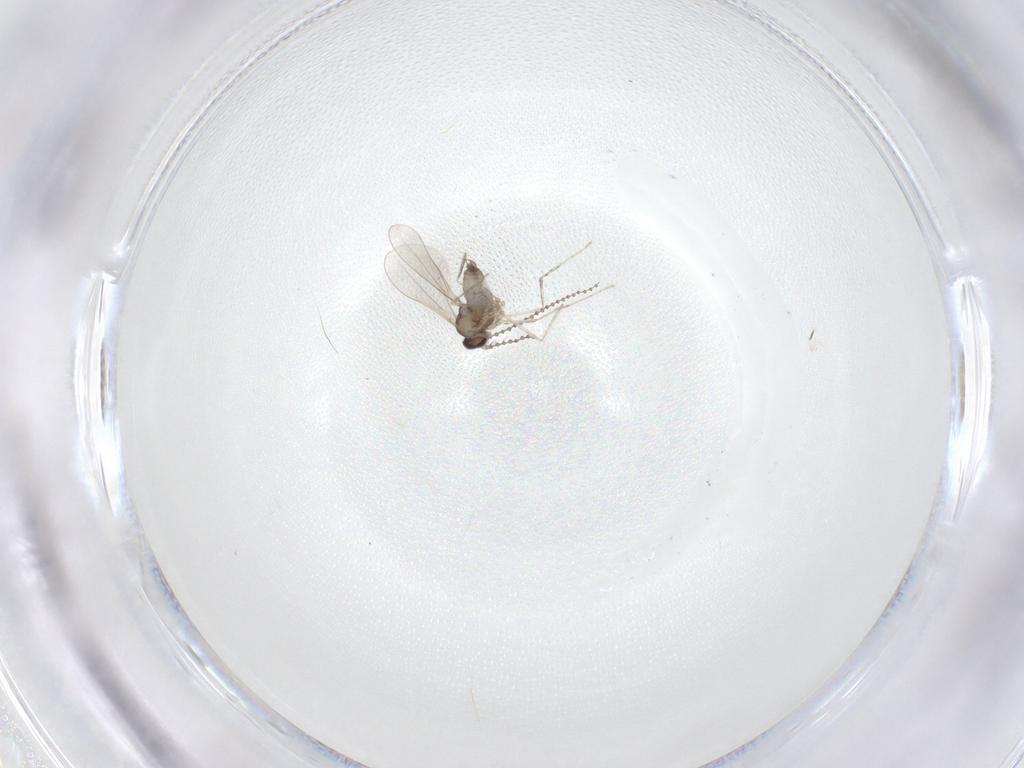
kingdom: Animalia
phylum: Arthropoda
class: Insecta
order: Diptera
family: Cecidomyiidae
